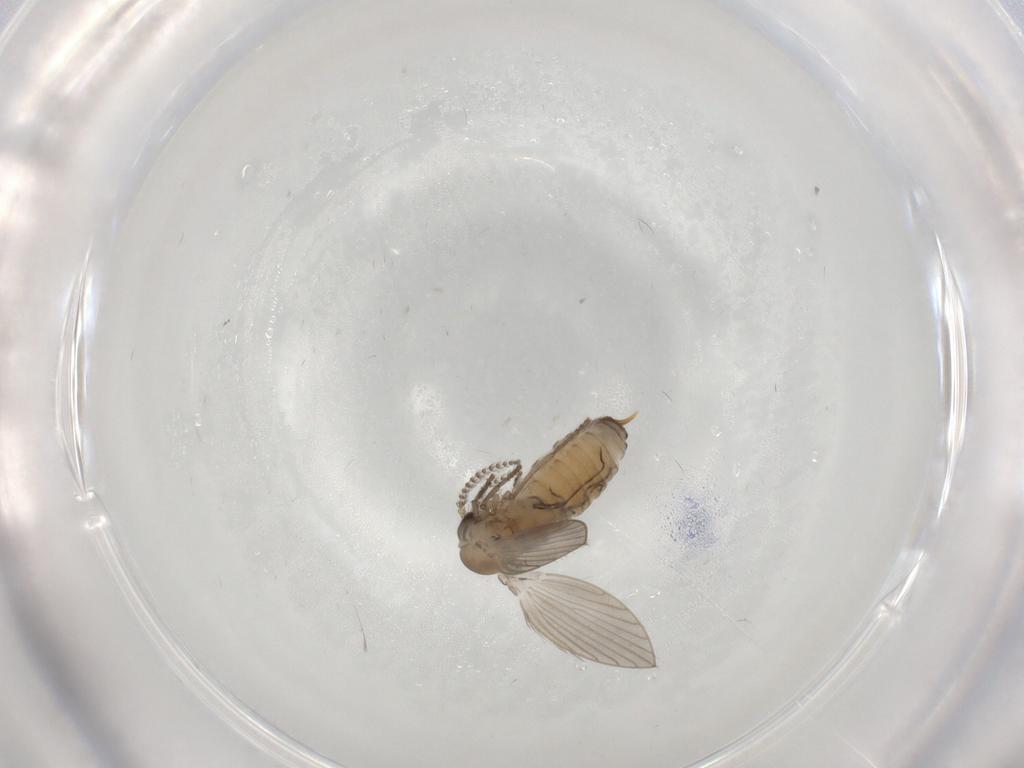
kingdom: Animalia
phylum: Arthropoda
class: Insecta
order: Diptera
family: Psychodidae
